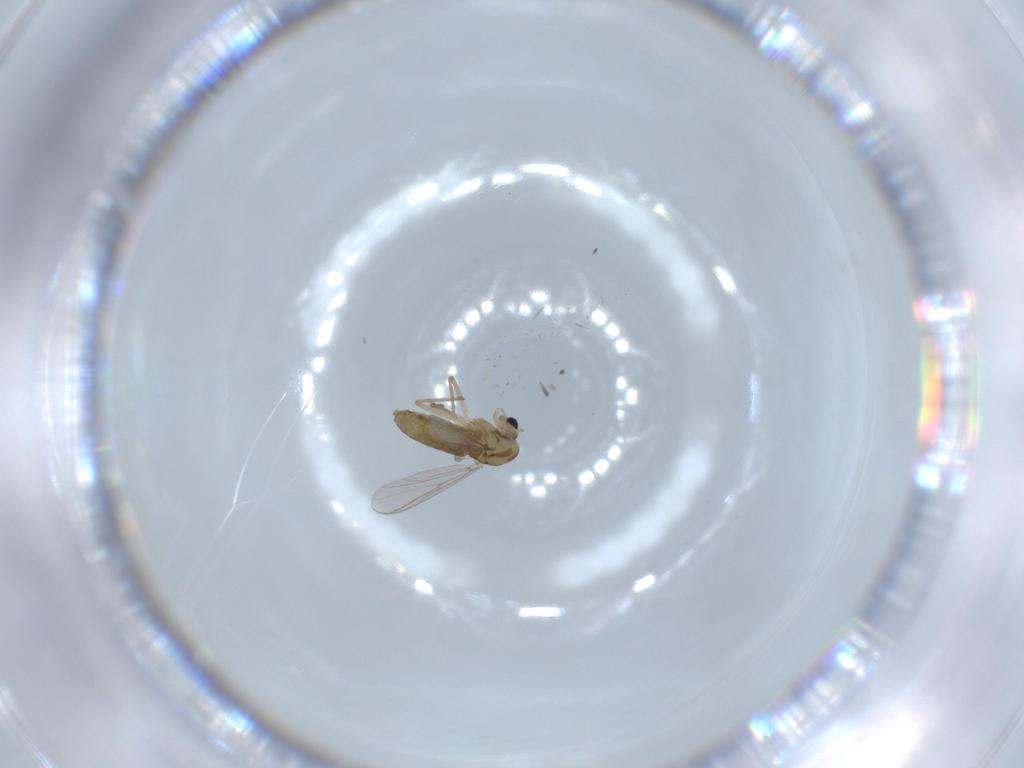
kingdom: Animalia
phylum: Arthropoda
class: Insecta
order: Diptera
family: Chironomidae
